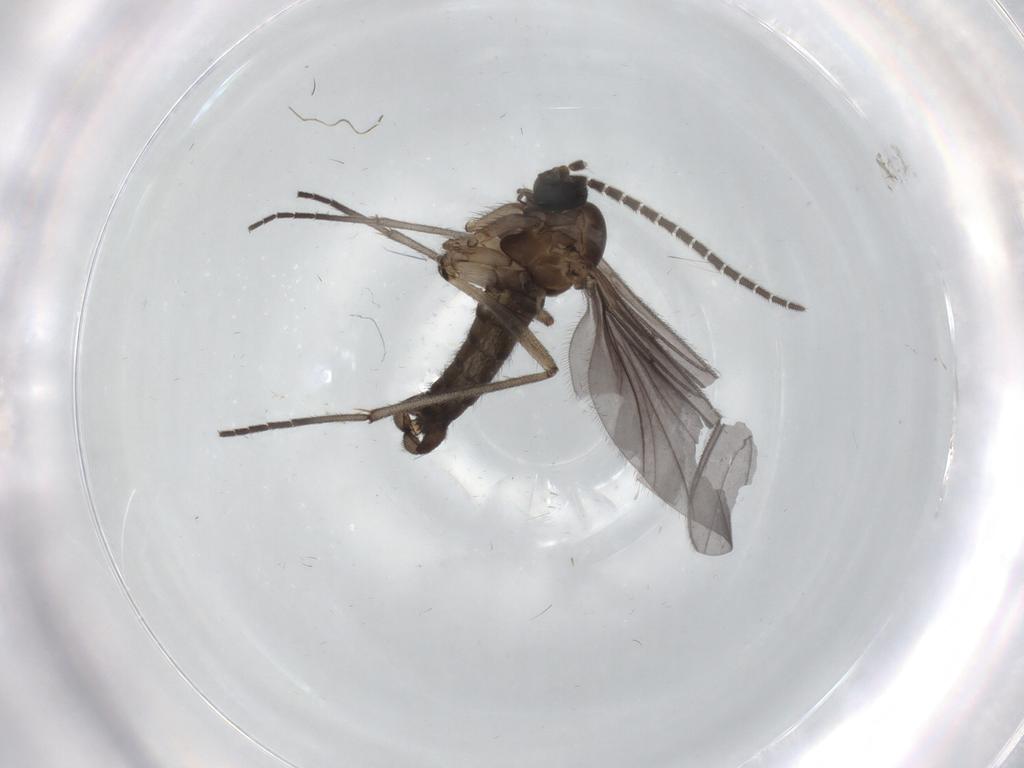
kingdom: Animalia
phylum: Arthropoda
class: Insecta
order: Diptera
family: Sciaridae
